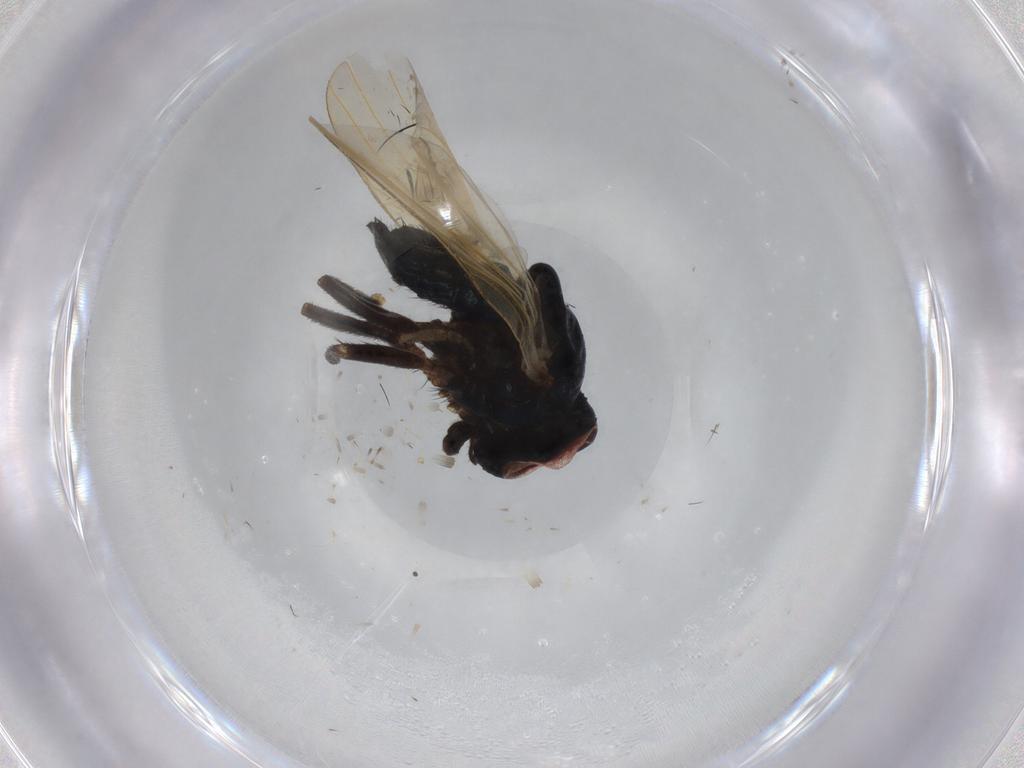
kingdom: Animalia
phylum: Arthropoda
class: Insecta
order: Diptera
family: Lonchaeidae
